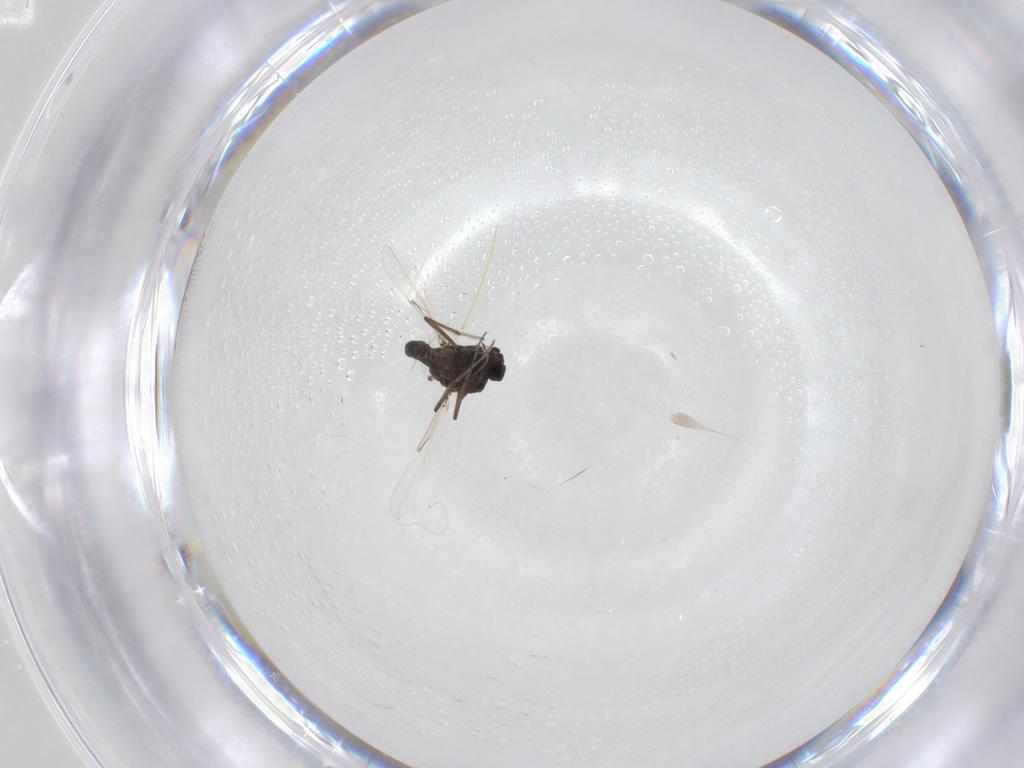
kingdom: Animalia
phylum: Arthropoda
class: Insecta
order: Diptera
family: Ceratopogonidae
